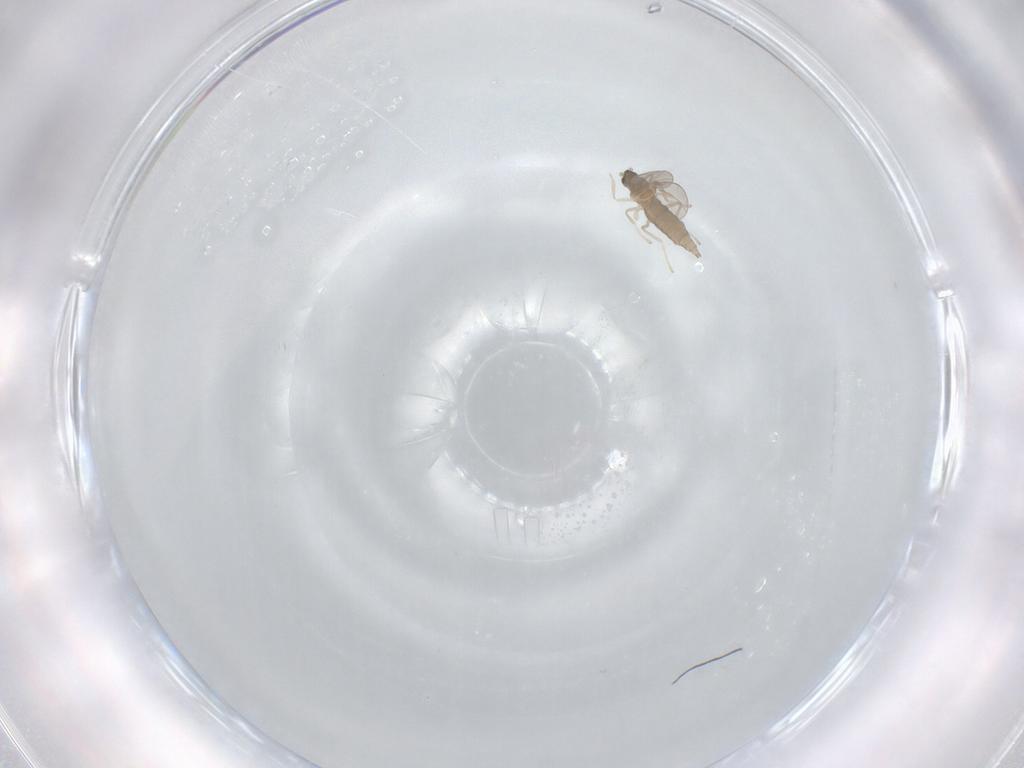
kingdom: Animalia
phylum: Arthropoda
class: Insecta
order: Diptera
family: Cecidomyiidae
